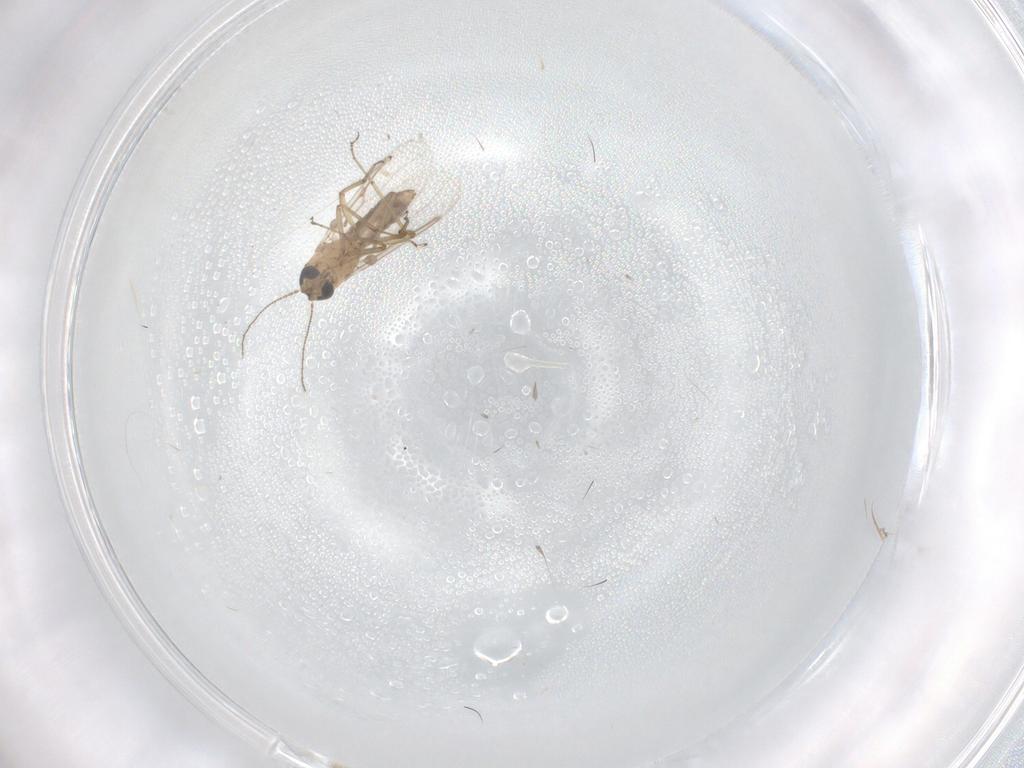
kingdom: Animalia
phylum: Arthropoda
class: Insecta
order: Diptera
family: Ceratopogonidae
